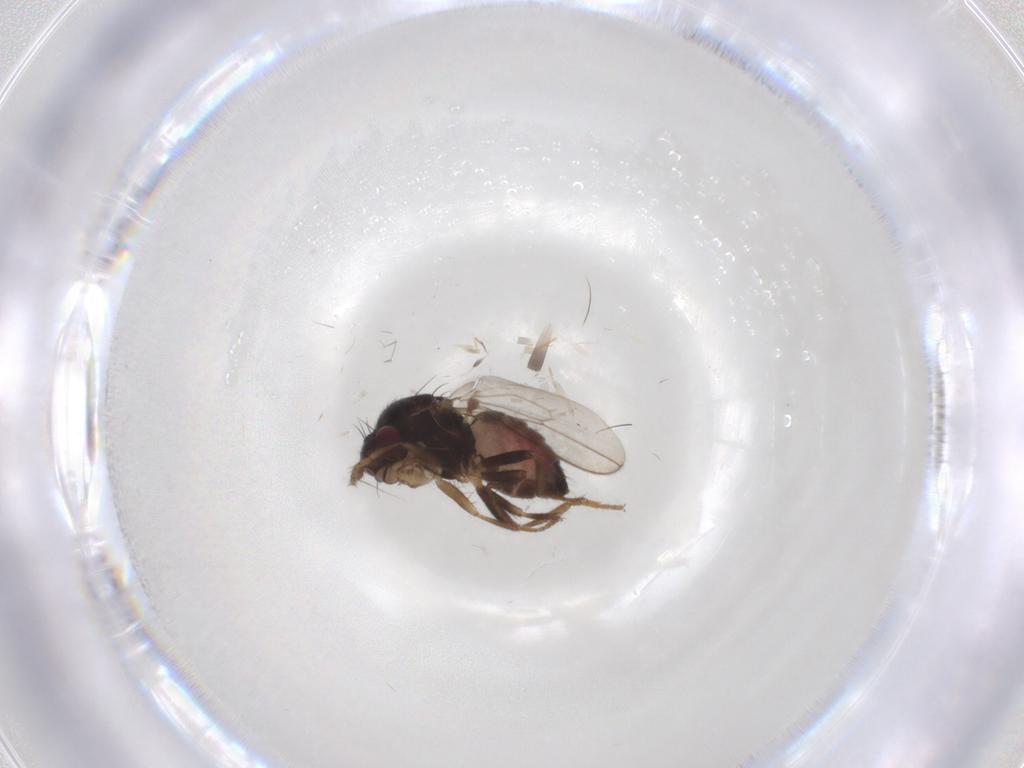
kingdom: Animalia
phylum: Arthropoda
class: Insecta
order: Diptera
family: Sphaeroceridae
